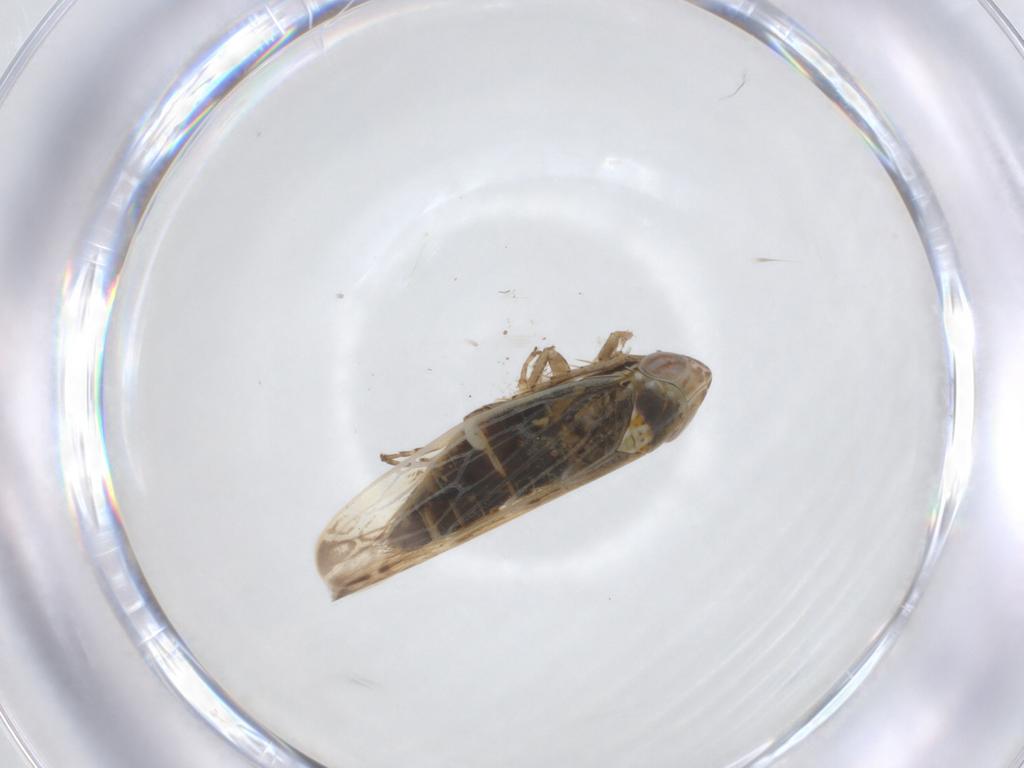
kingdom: Animalia
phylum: Arthropoda
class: Insecta
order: Hemiptera
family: Cicadellidae
